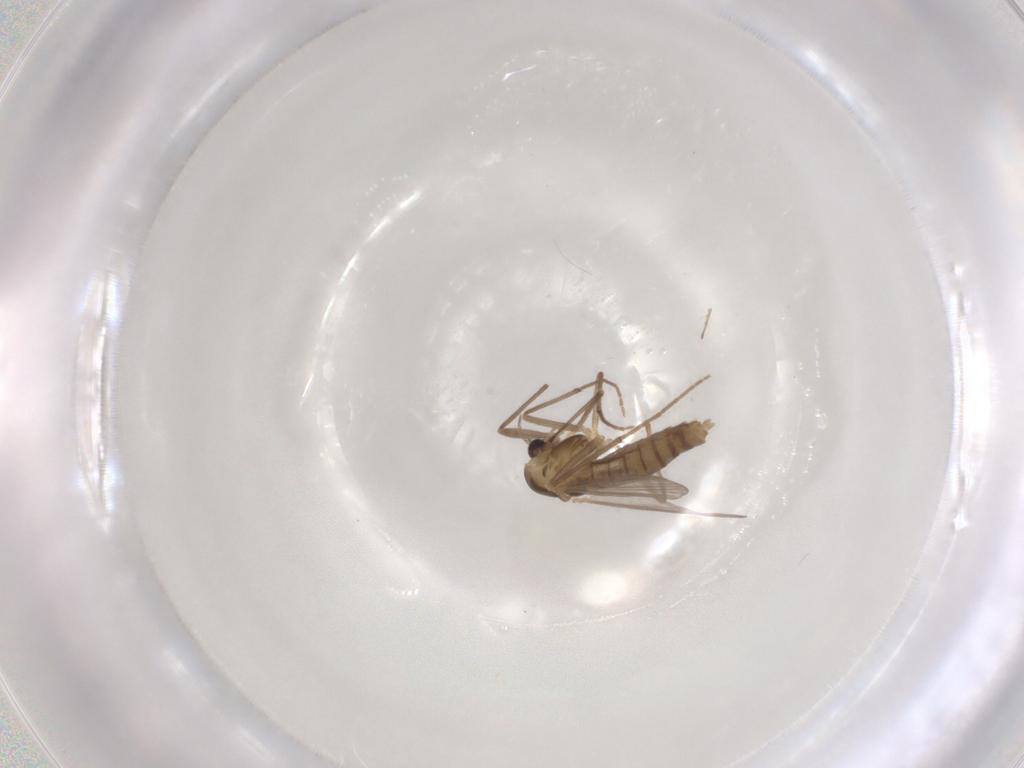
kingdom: Animalia
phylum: Arthropoda
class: Insecta
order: Diptera
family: Chironomidae
